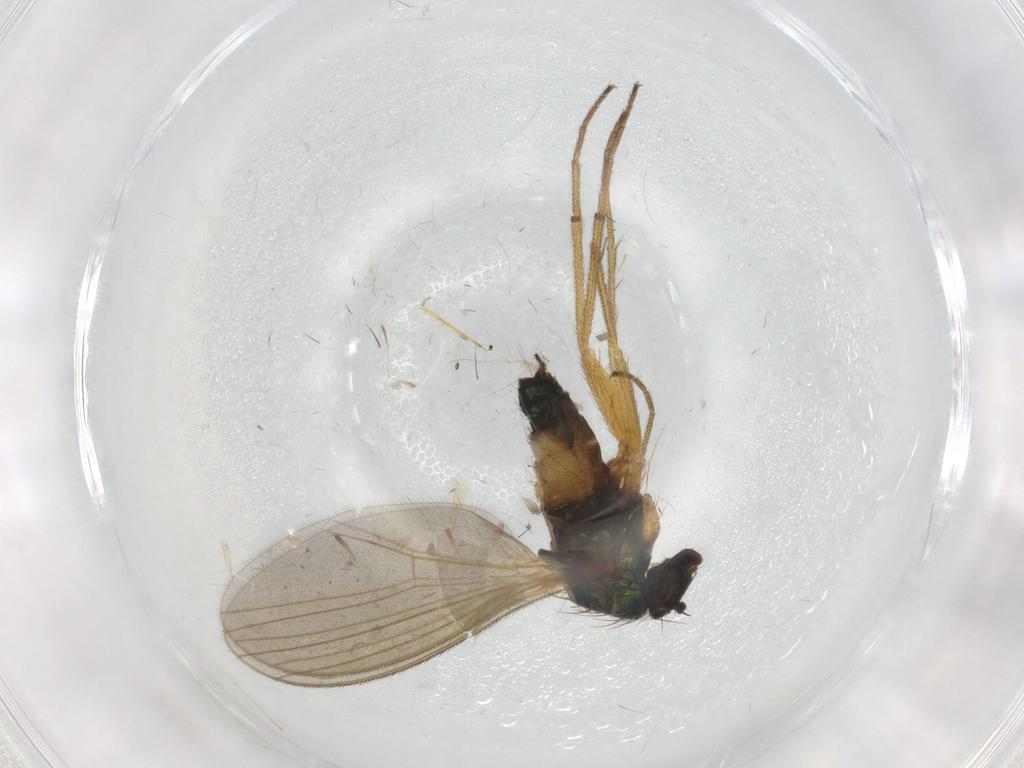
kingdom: Animalia
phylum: Arthropoda
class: Insecta
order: Diptera
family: Dolichopodidae
